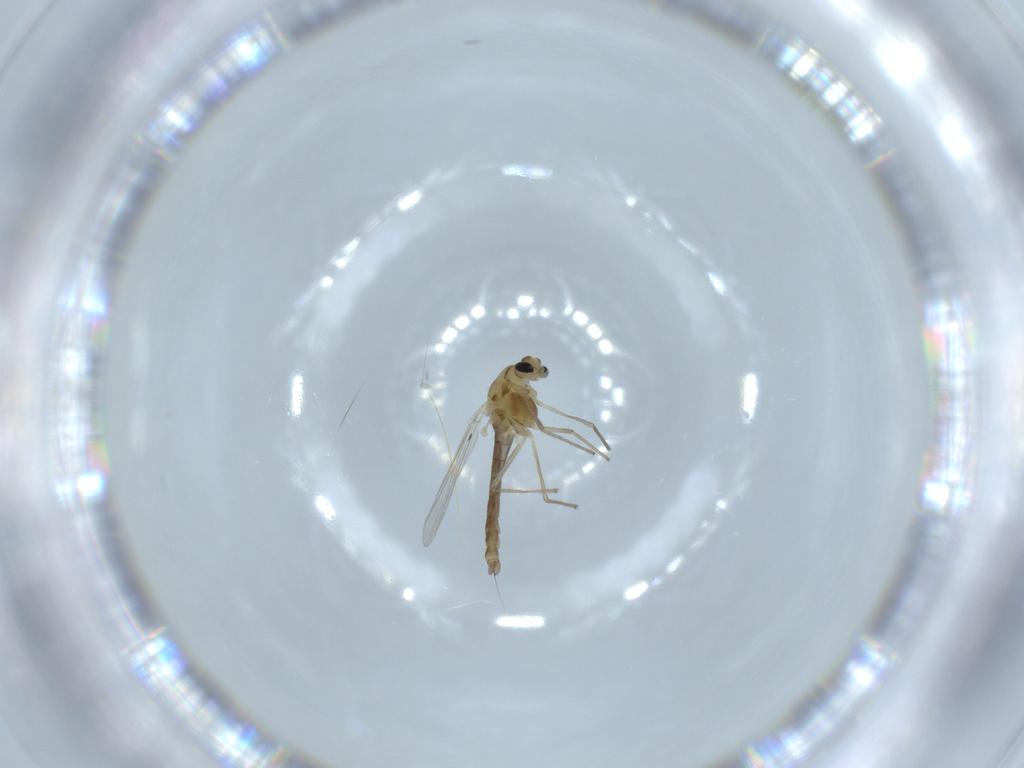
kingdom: Animalia
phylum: Arthropoda
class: Insecta
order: Diptera
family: Chironomidae
